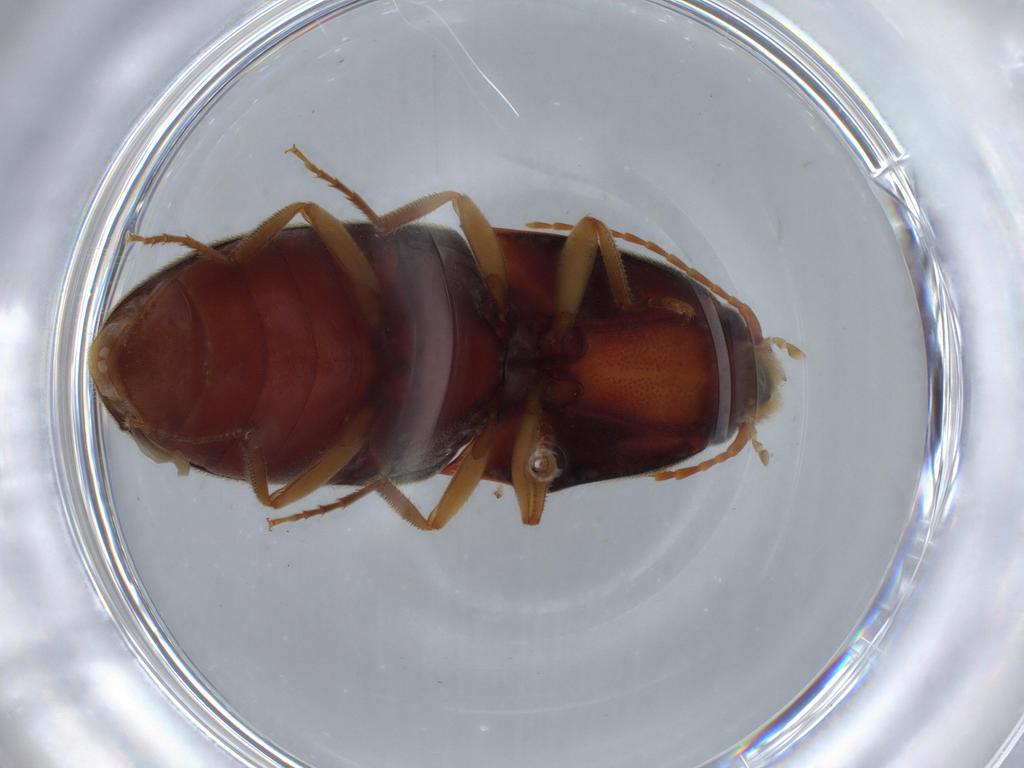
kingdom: Animalia
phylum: Arthropoda
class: Insecta
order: Coleoptera
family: Elateridae
